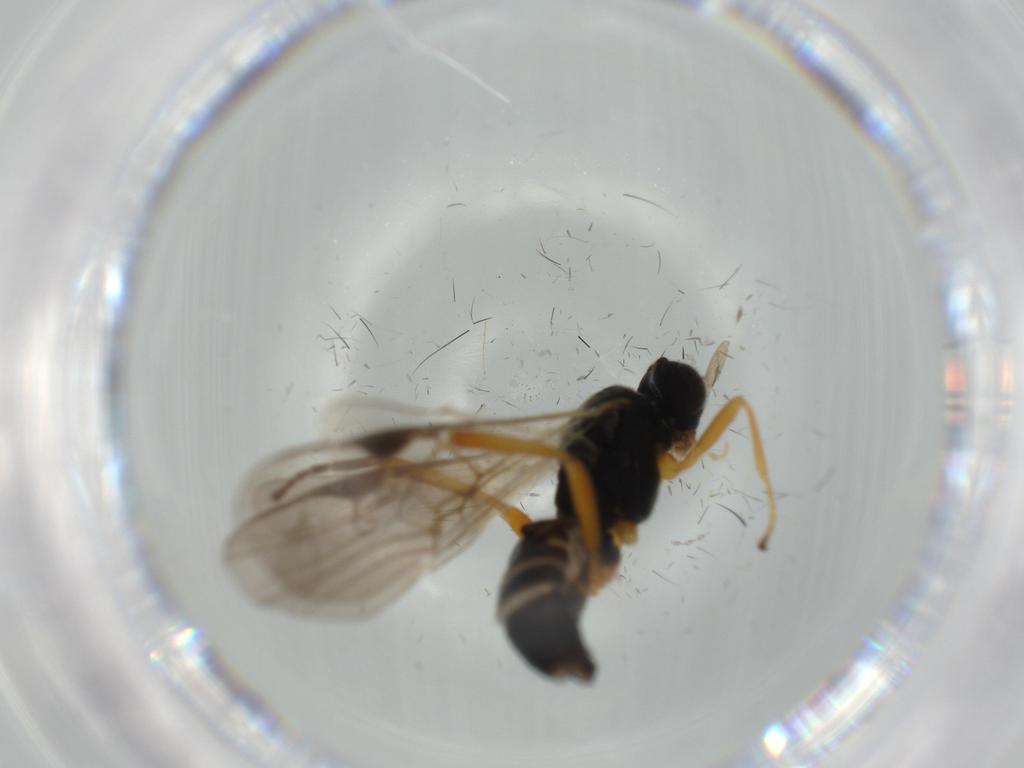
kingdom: Animalia
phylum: Arthropoda
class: Insecta
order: Hymenoptera
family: Braconidae
